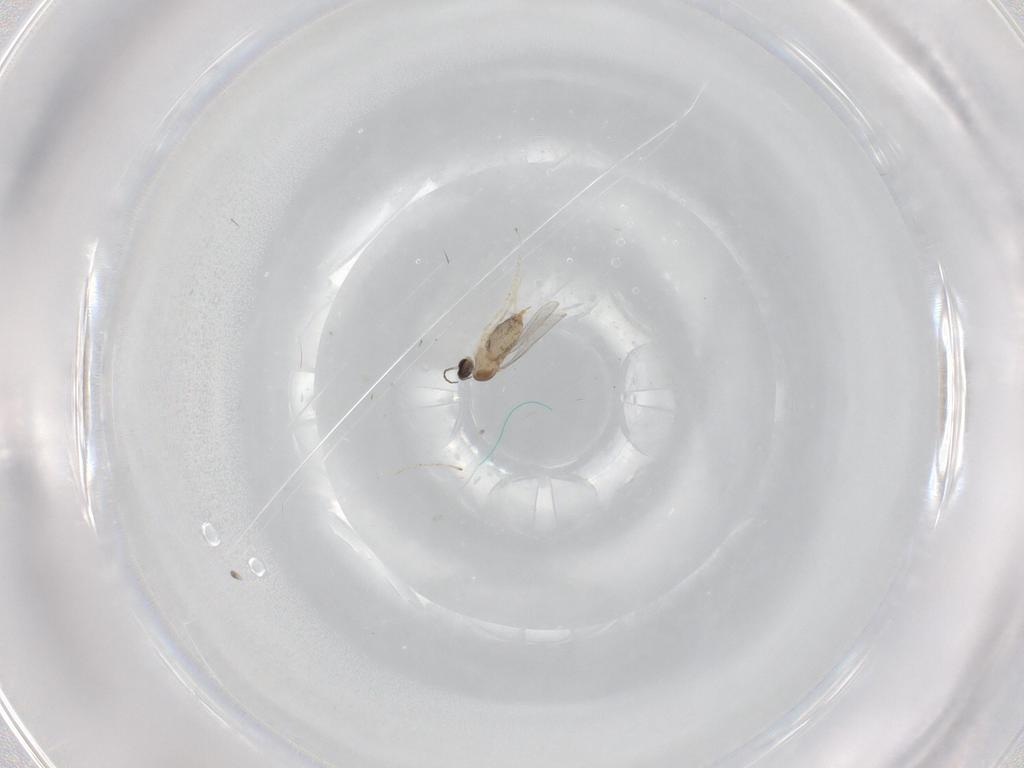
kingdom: Animalia
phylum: Arthropoda
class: Insecta
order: Diptera
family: Cecidomyiidae
